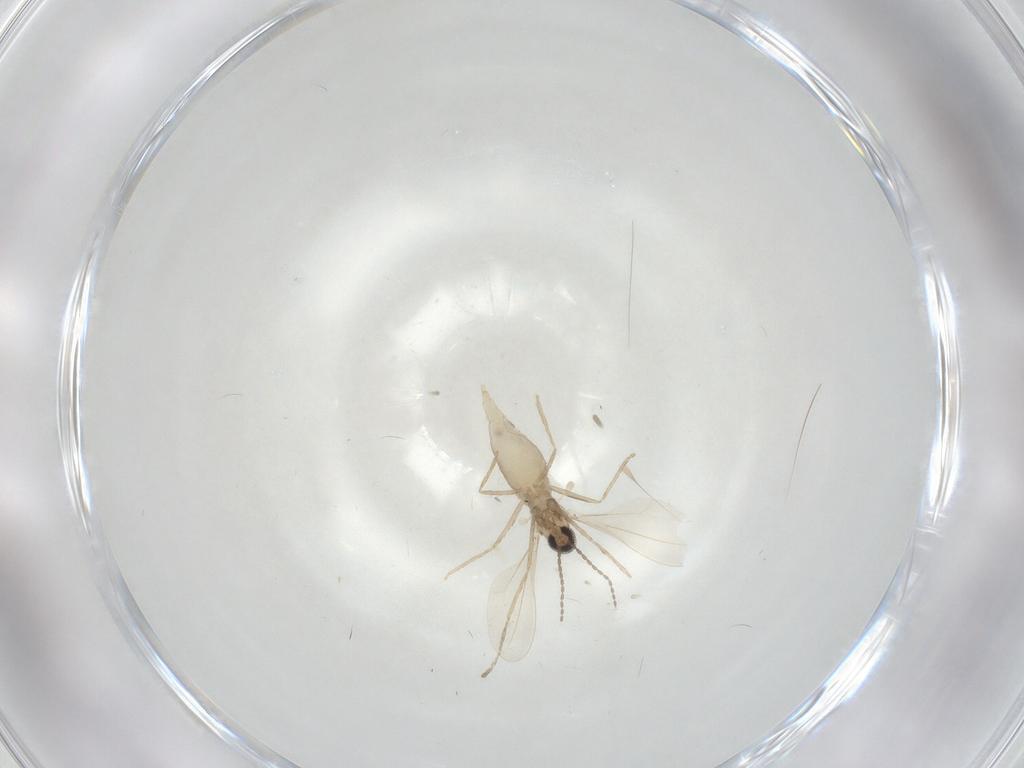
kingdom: Animalia
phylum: Arthropoda
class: Insecta
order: Diptera
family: Cecidomyiidae
